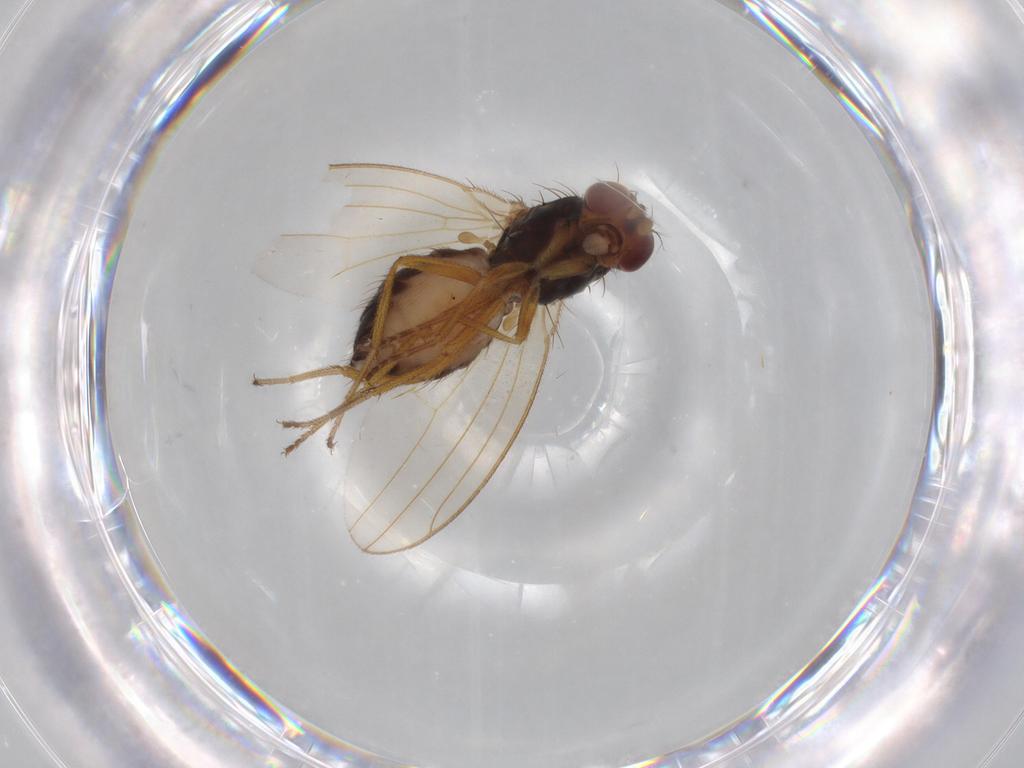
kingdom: Animalia
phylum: Arthropoda
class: Insecta
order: Diptera
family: Drosophilidae
